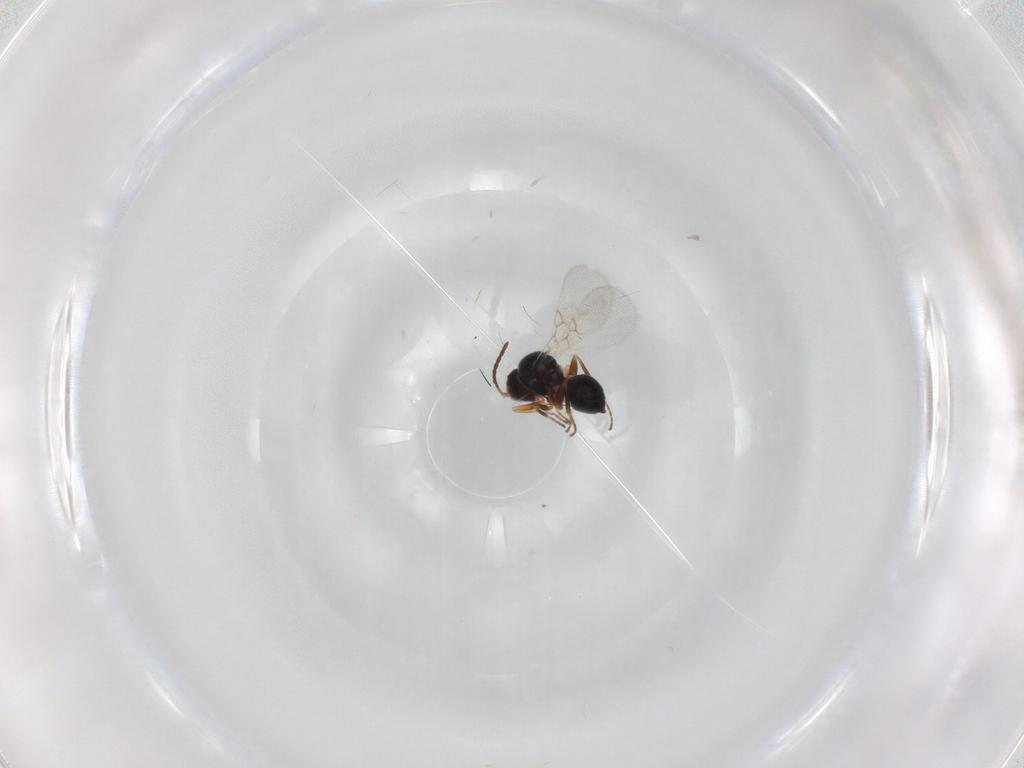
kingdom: Animalia
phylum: Arthropoda
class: Insecta
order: Hymenoptera
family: Figitidae
